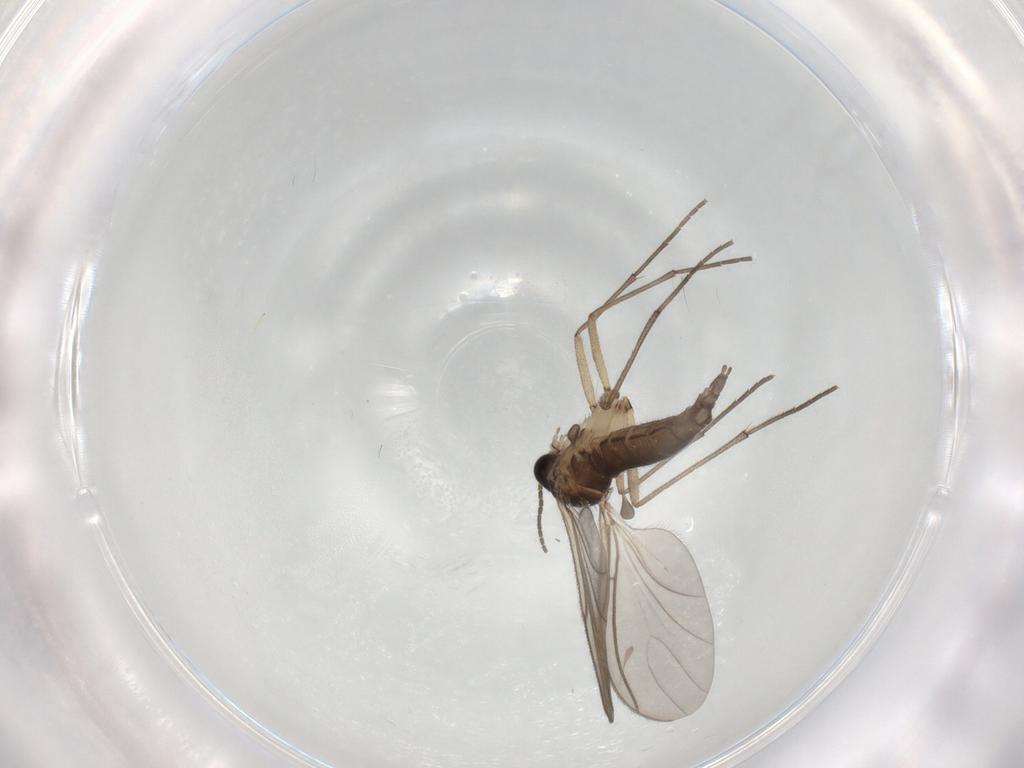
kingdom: Animalia
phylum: Arthropoda
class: Insecta
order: Diptera
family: Sciaridae
